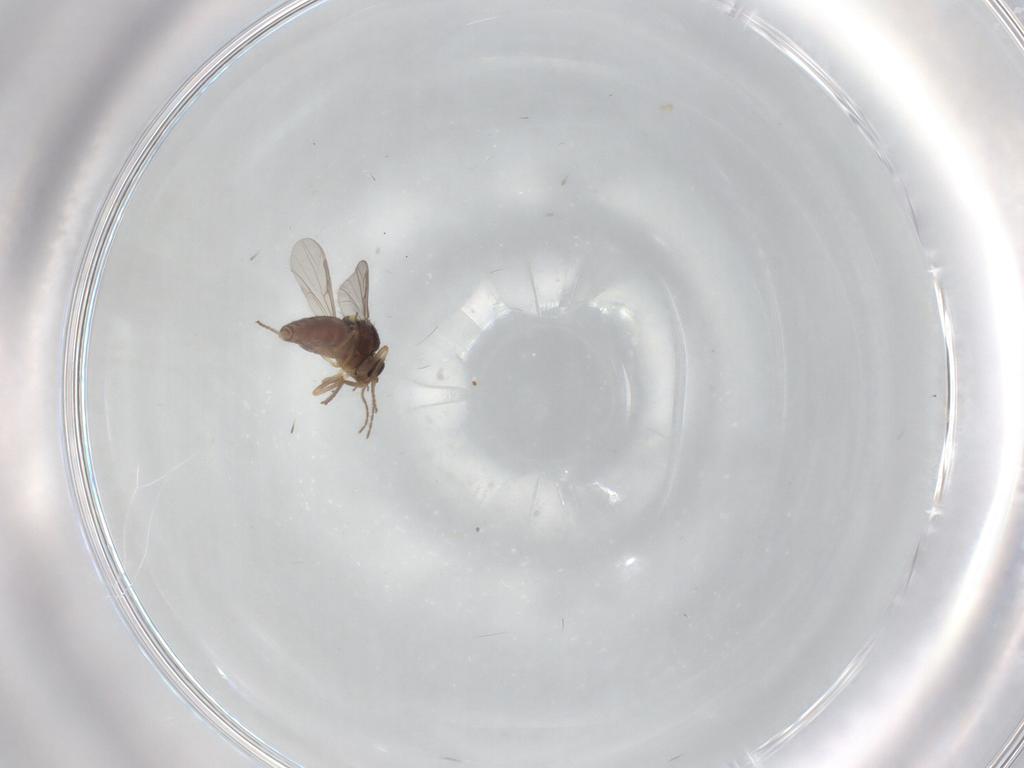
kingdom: Animalia
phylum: Arthropoda
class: Insecta
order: Diptera
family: Ceratopogonidae
